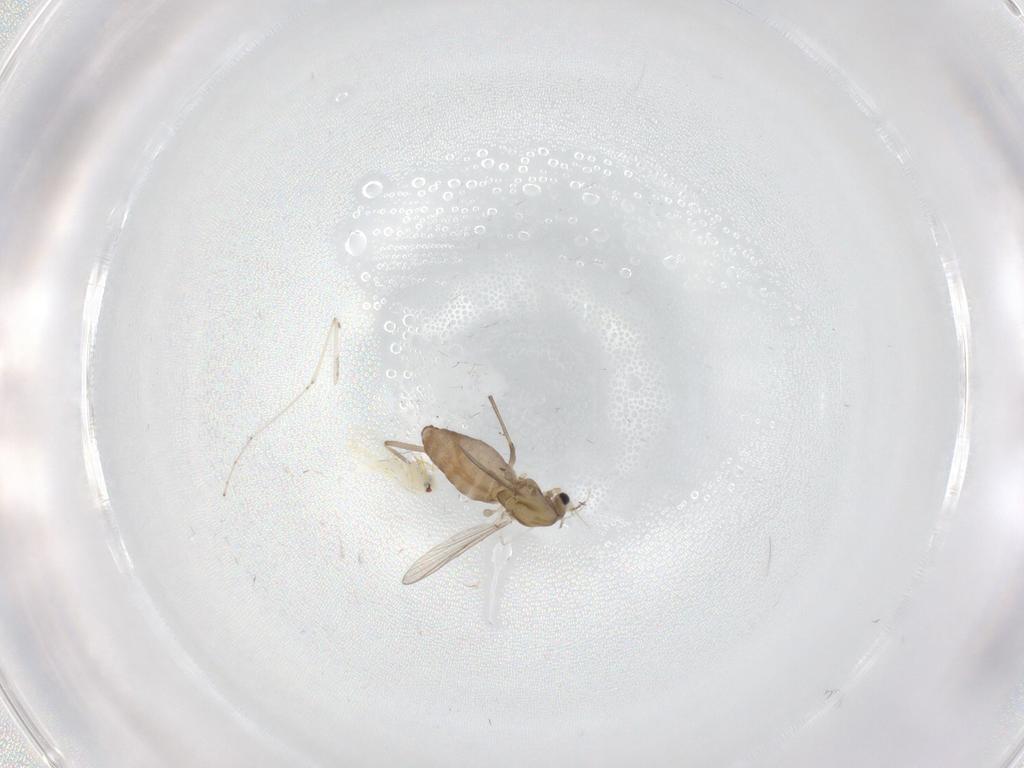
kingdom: Animalia
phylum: Arthropoda
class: Insecta
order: Diptera
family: Chironomidae
